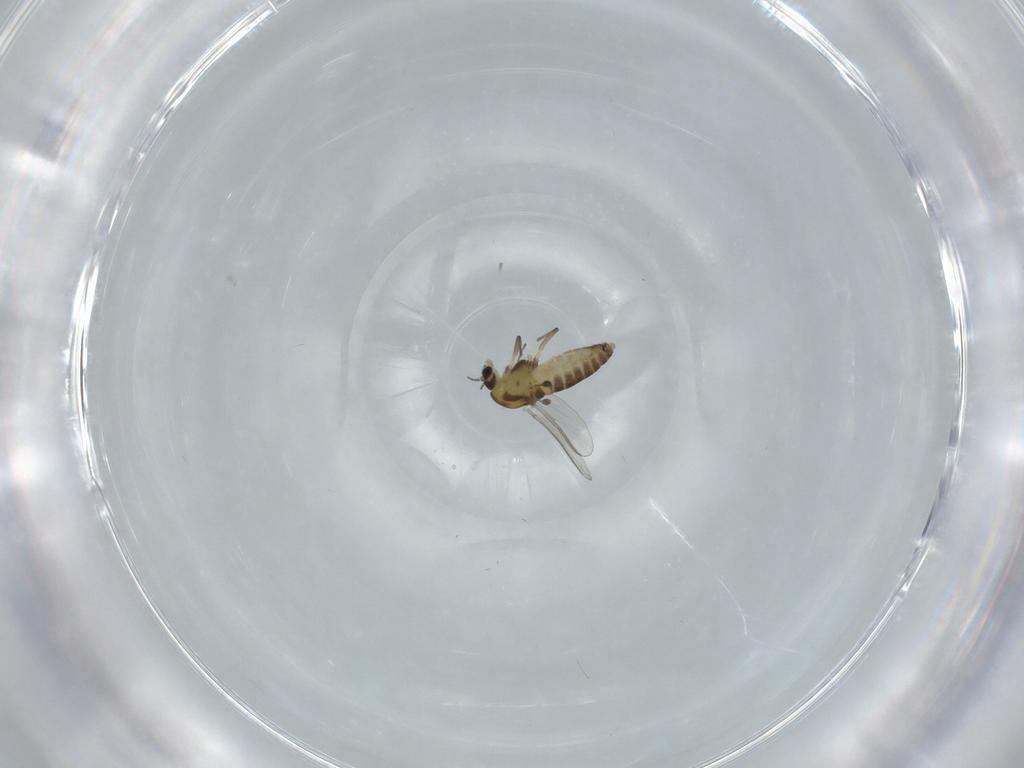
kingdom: Animalia
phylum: Arthropoda
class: Insecta
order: Diptera
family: Chironomidae
